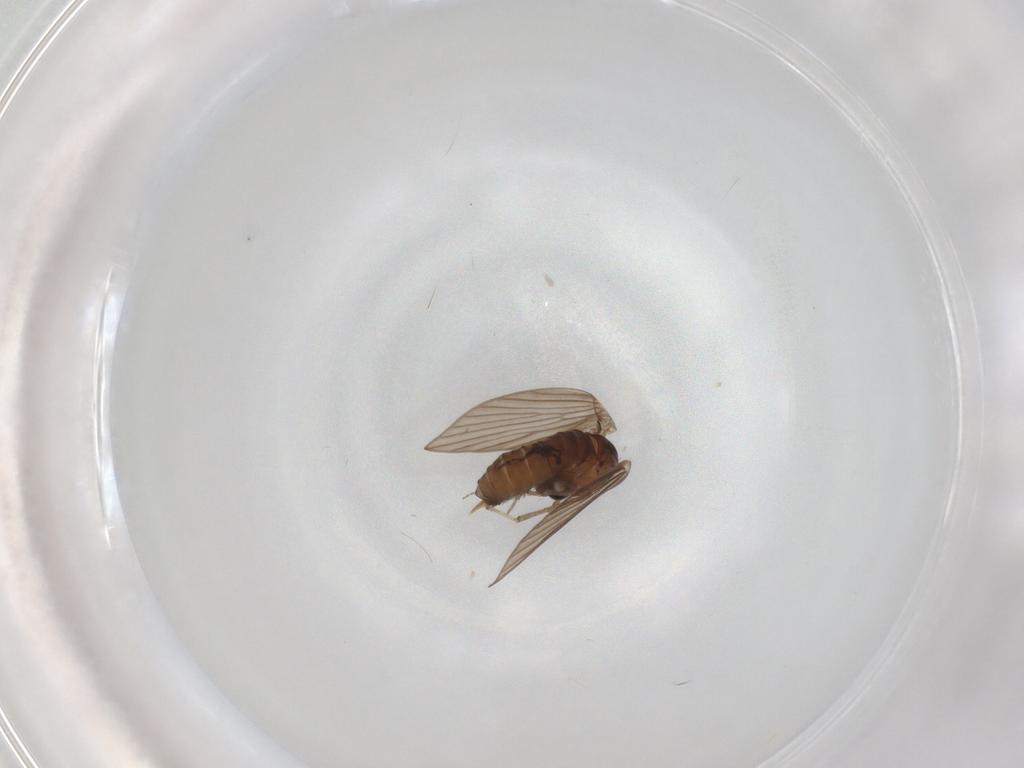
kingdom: Animalia
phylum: Arthropoda
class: Insecta
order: Diptera
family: Psychodidae
